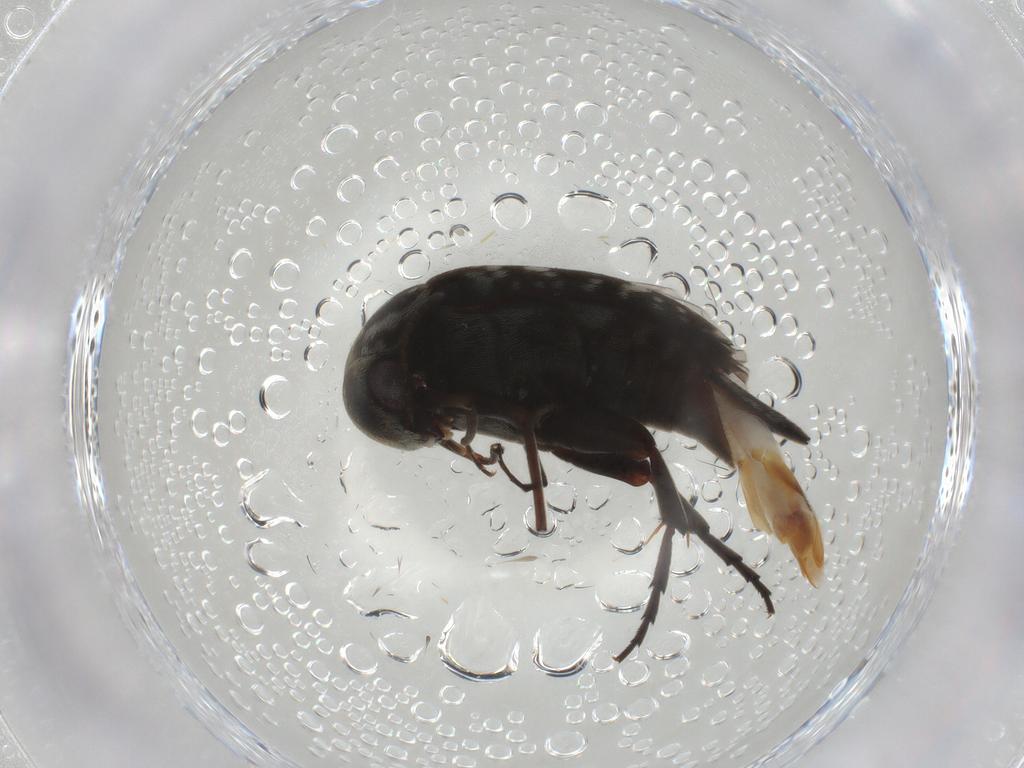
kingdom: Animalia
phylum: Arthropoda
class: Insecta
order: Coleoptera
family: Mordellidae
